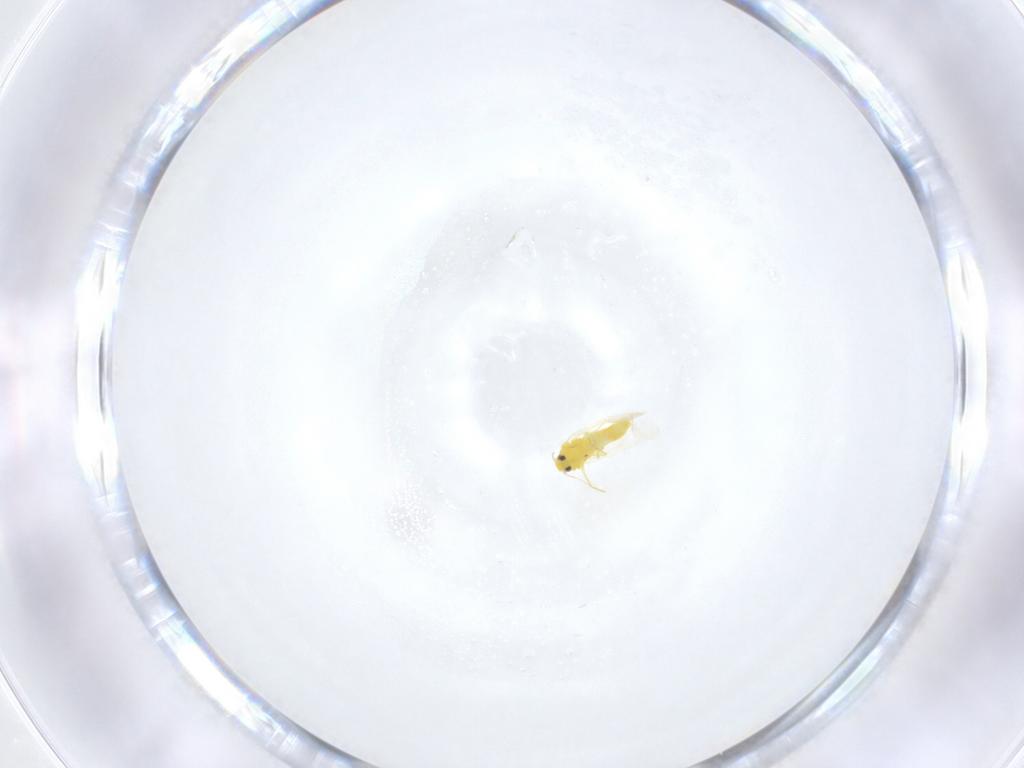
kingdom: Animalia
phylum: Arthropoda
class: Insecta
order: Hemiptera
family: Aleyrodidae
